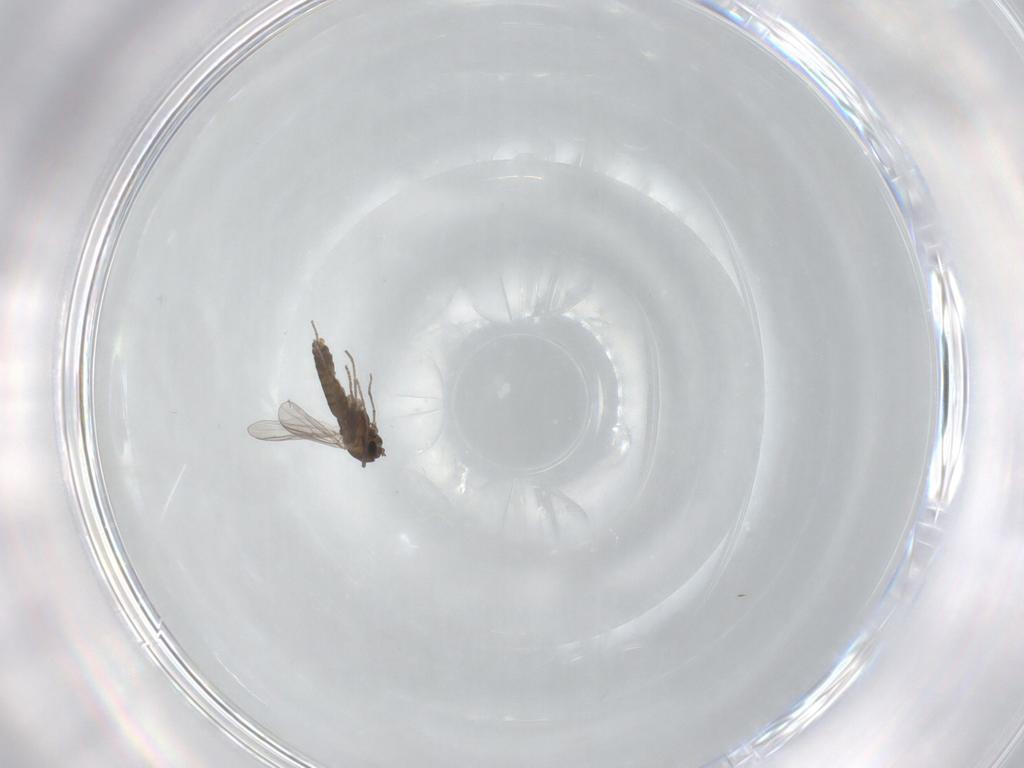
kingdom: Animalia
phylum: Arthropoda
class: Insecta
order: Diptera
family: Chironomidae
